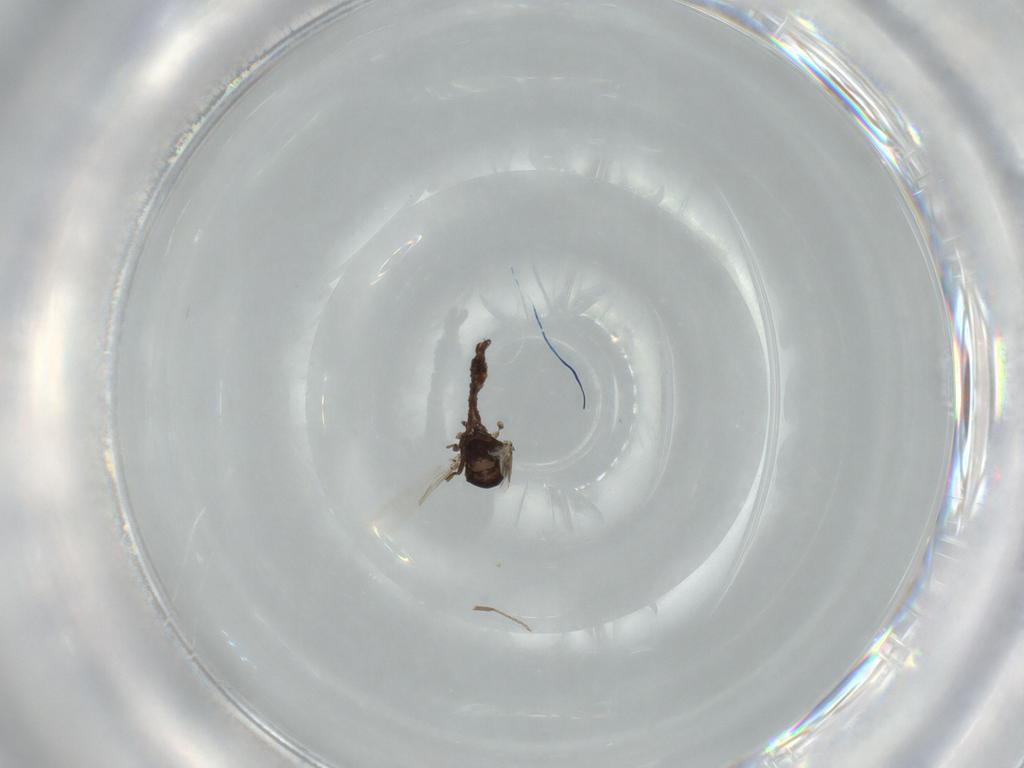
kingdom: Animalia
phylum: Arthropoda
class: Insecta
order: Diptera
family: Ceratopogonidae
